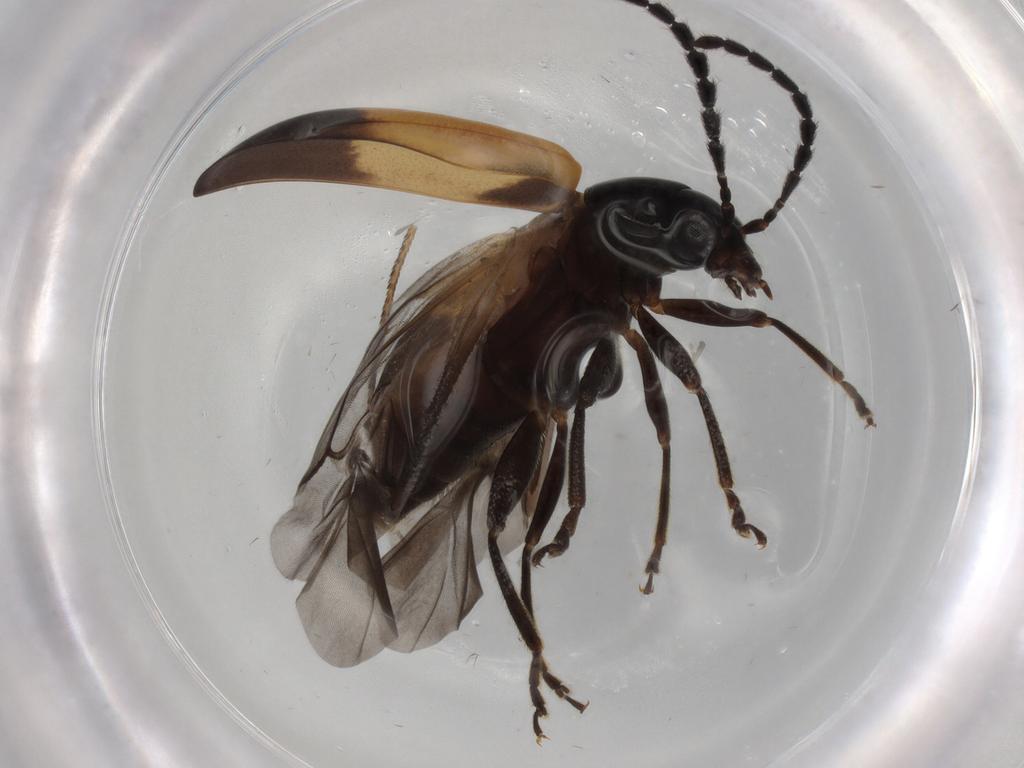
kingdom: Animalia
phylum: Arthropoda
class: Insecta
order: Coleoptera
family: Chrysomelidae
